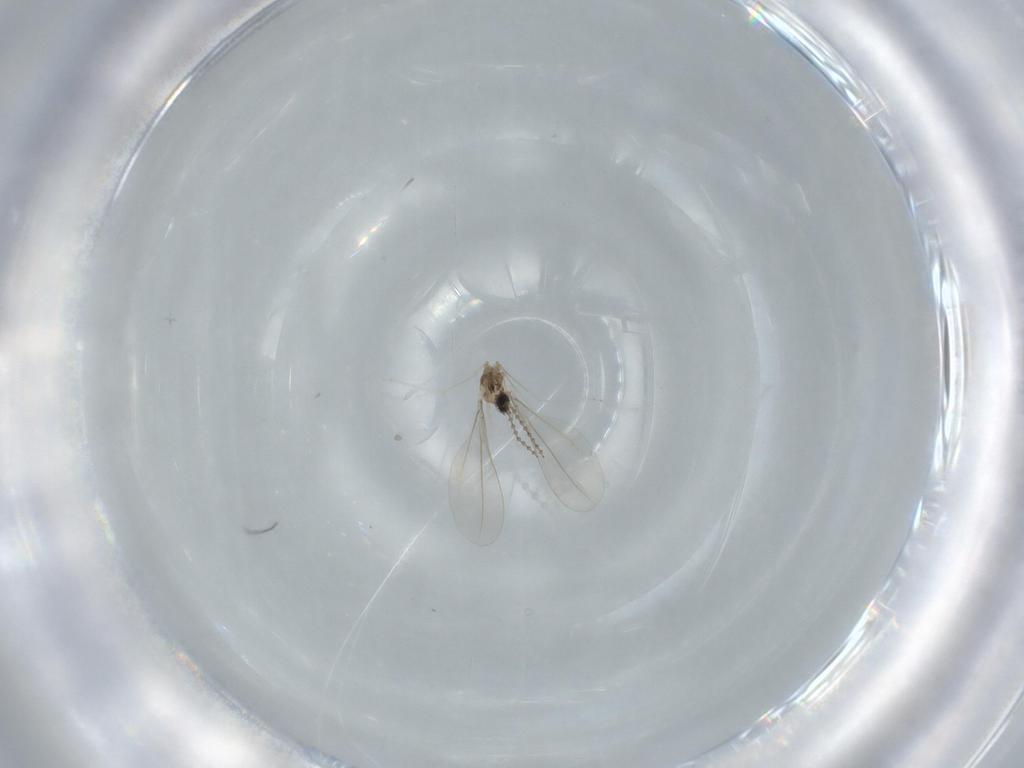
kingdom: Animalia
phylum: Arthropoda
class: Insecta
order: Diptera
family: Cecidomyiidae
